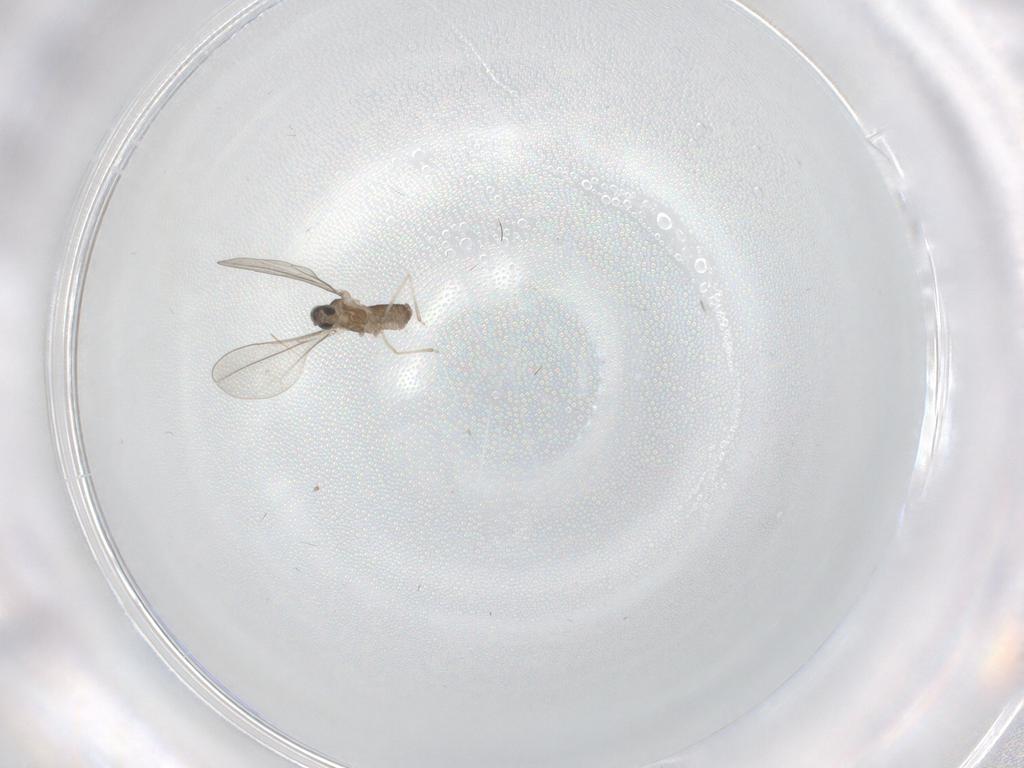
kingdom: Animalia
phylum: Arthropoda
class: Insecta
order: Diptera
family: Cecidomyiidae
